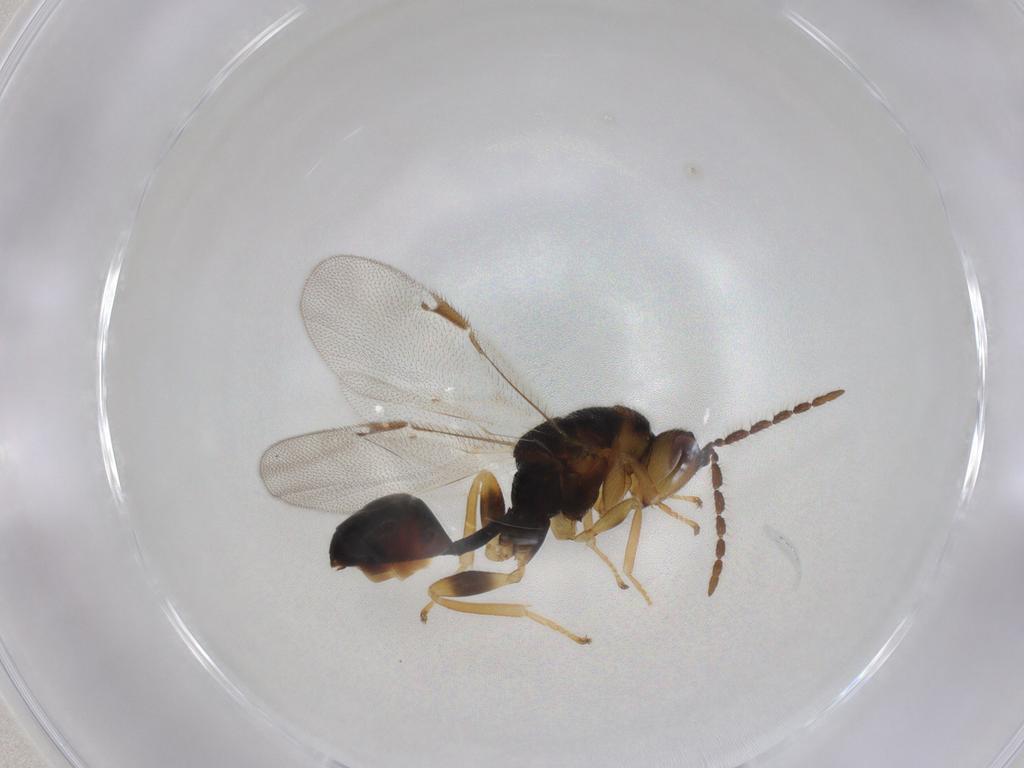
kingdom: Animalia
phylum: Arthropoda
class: Insecta
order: Hymenoptera
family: Eurytomidae
